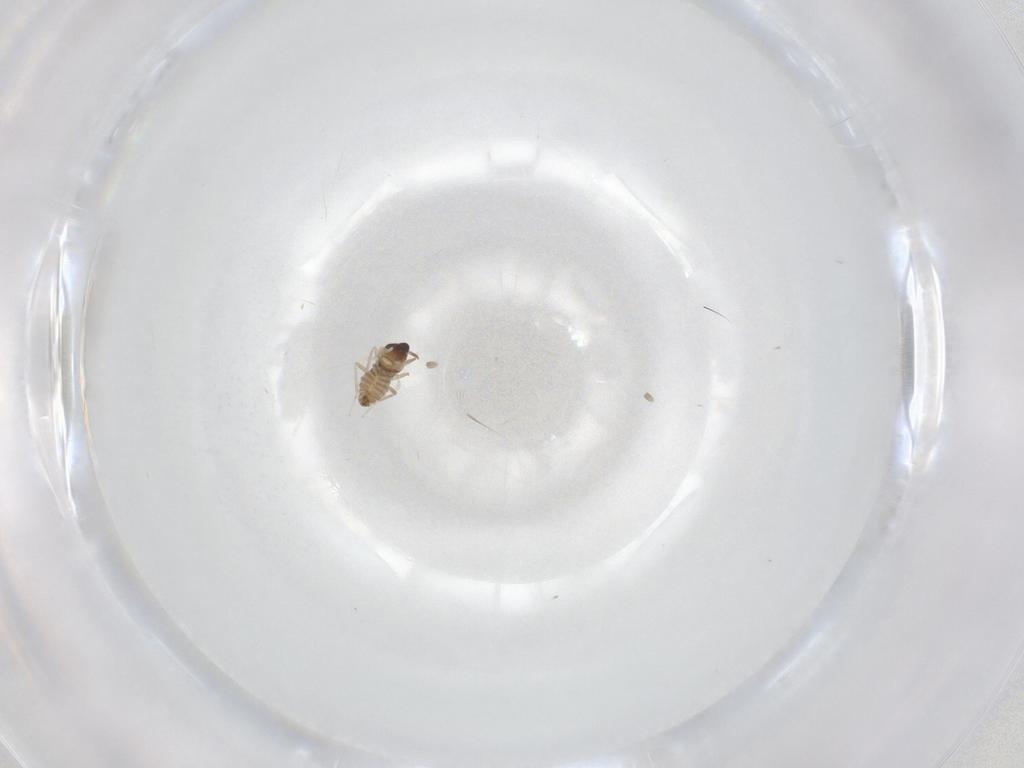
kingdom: Animalia
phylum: Arthropoda
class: Insecta
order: Diptera
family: Cecidomyiidae
